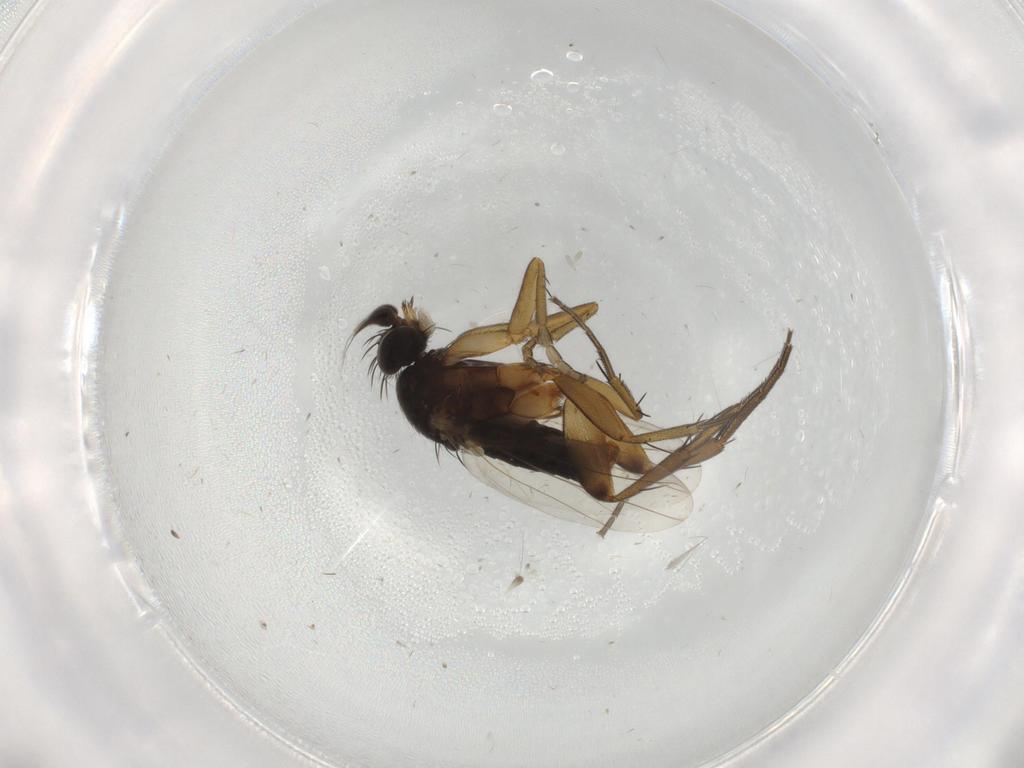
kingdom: Animalia
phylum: Arthropoda
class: Insecta
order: Diptera
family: Phoridae
